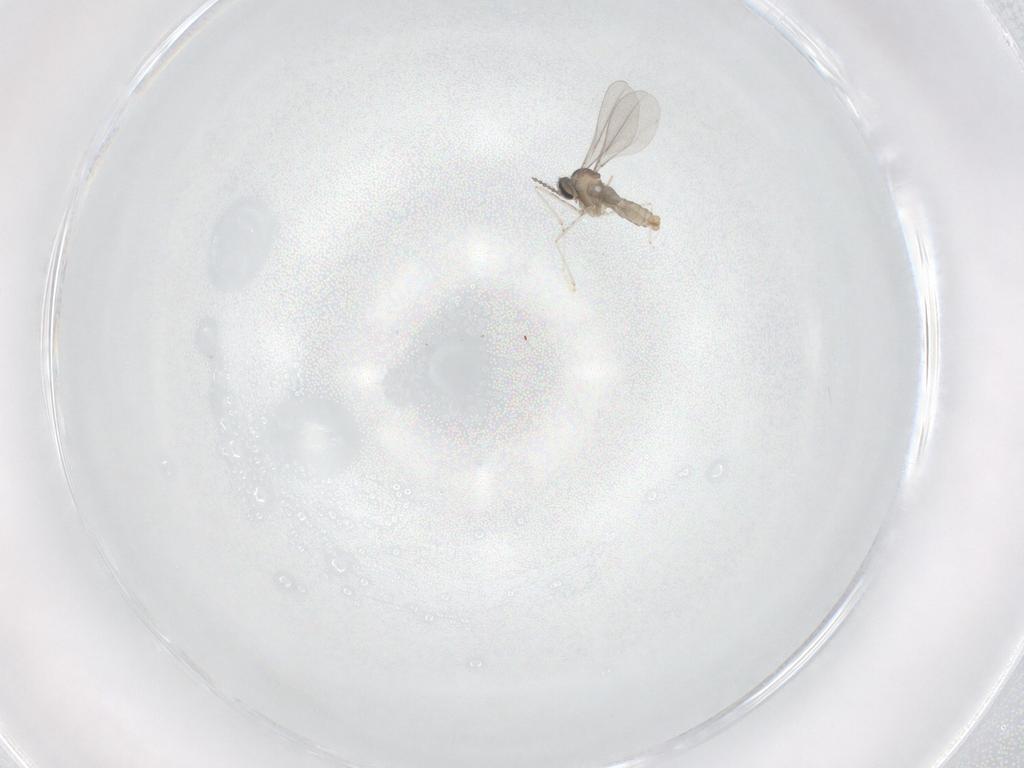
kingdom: Animalia
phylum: Arthropoda
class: Insecta
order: Diptera
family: Cecidomyiidae
